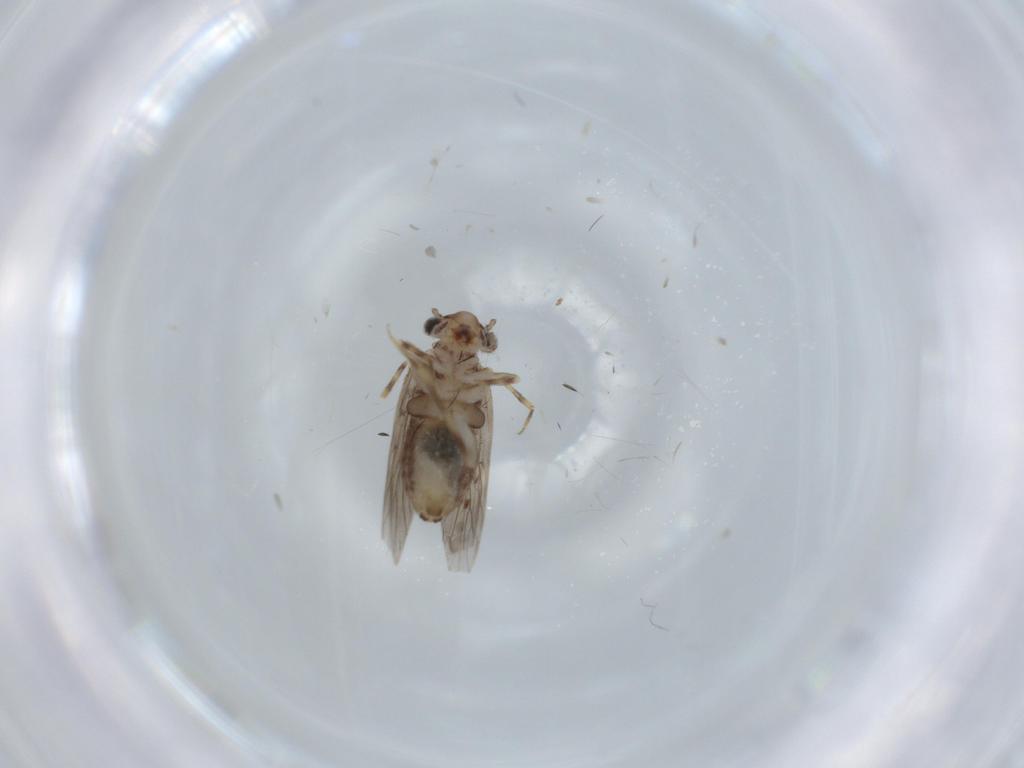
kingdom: Animalia
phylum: Arthropoda
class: Insecta
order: Psocodea
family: Lepidopsocidae
